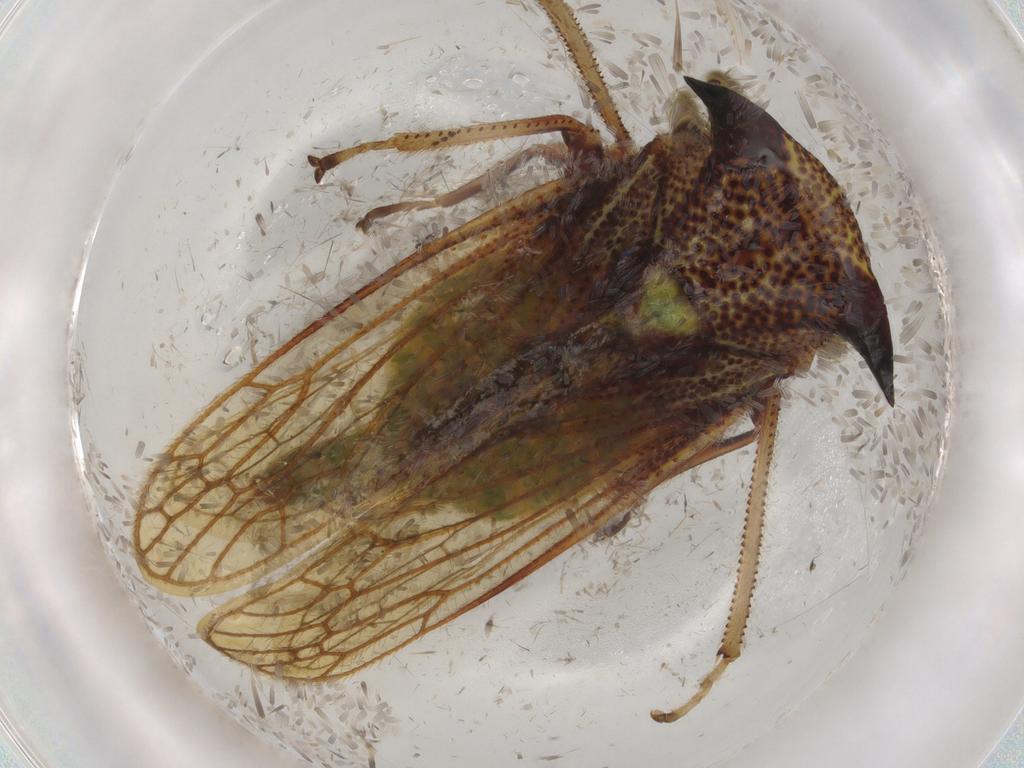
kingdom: Animalia
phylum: Arthropoda
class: Insecta
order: Hemiptera
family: Membracidae
